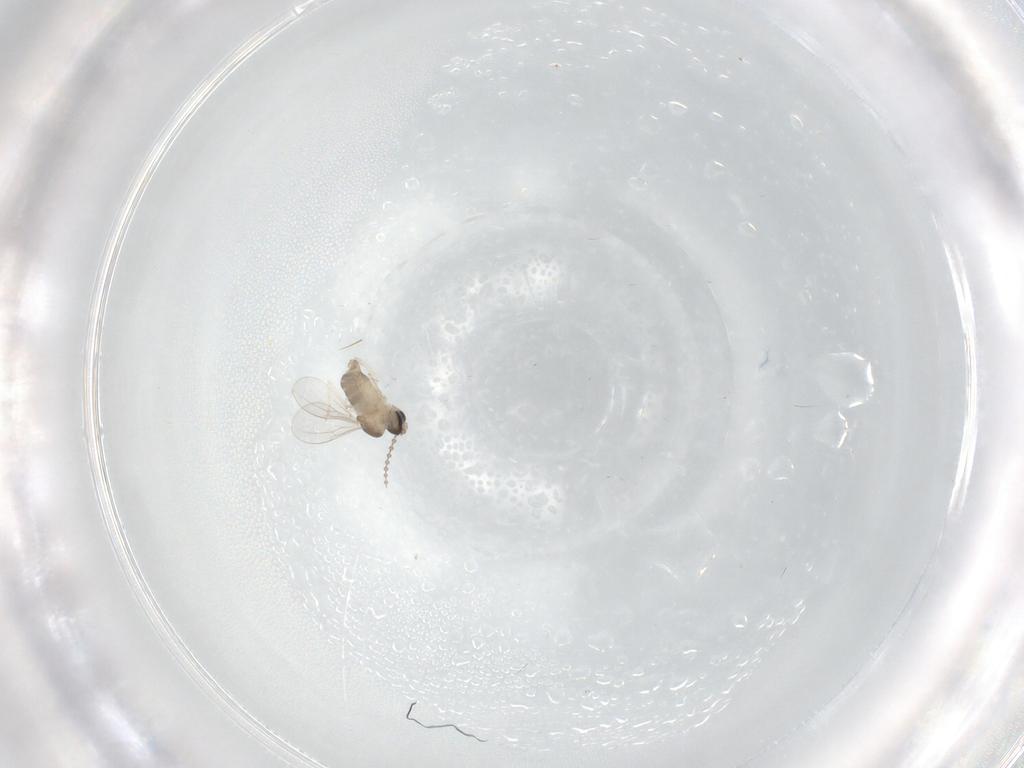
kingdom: Animalia
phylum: Arthropoda
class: Insecta
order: Diptera
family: Cecidomyiidae
